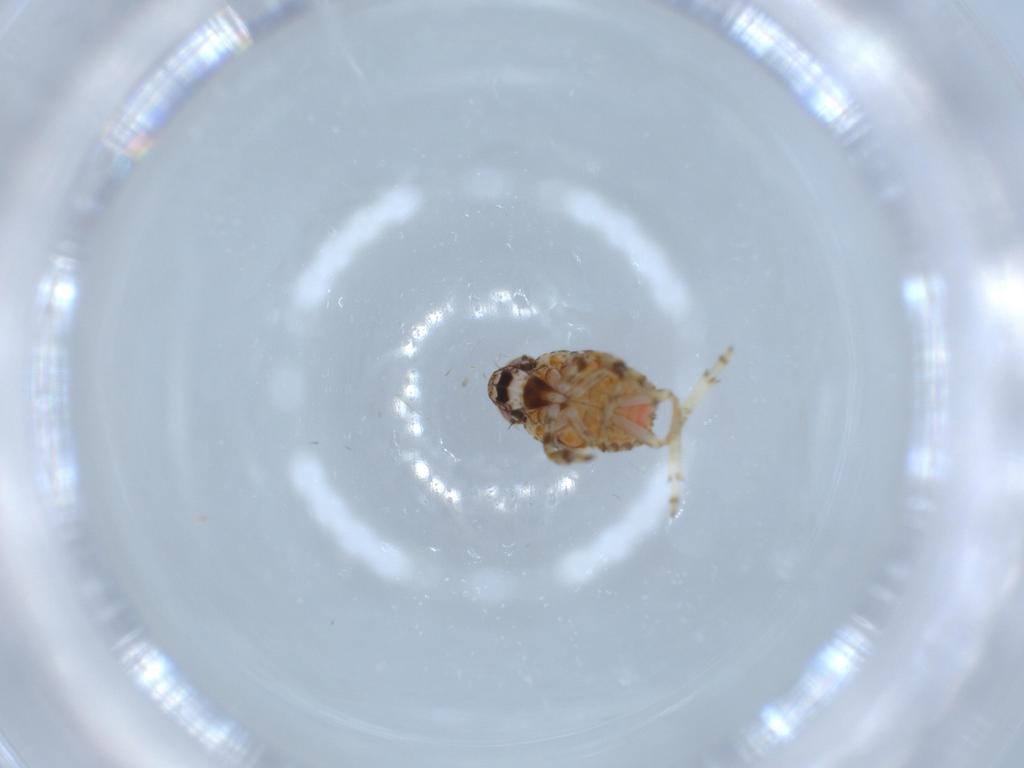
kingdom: Animalia
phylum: Arthropoda
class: Insecta
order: Hemiptera
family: Issidae
